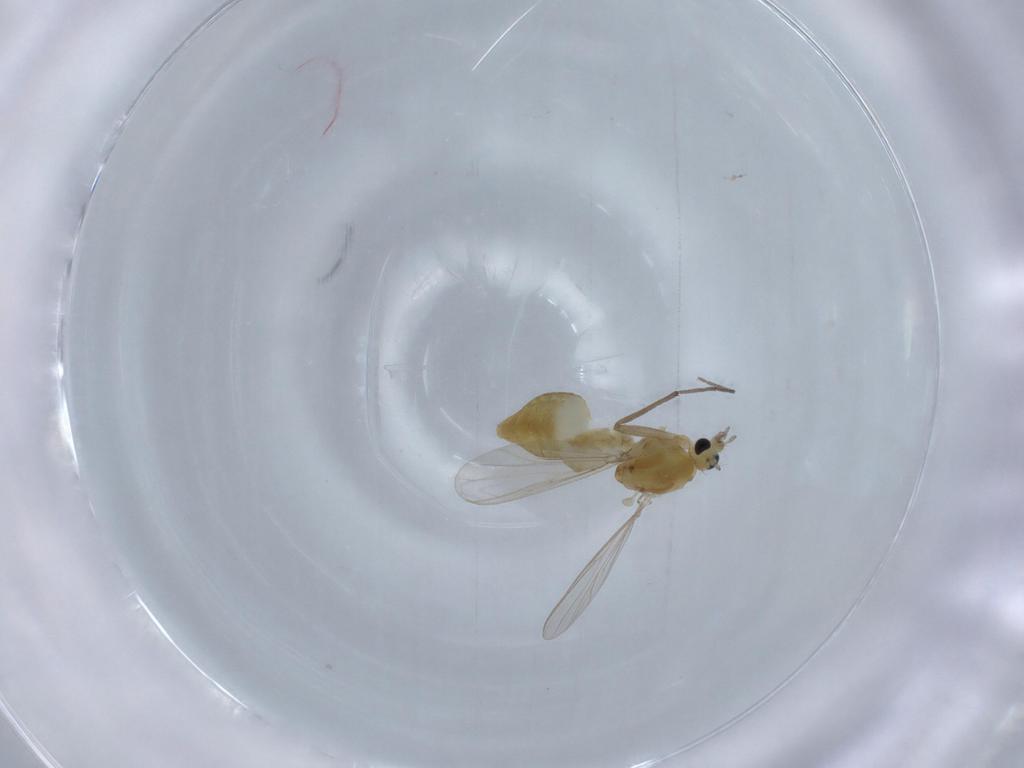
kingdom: Animalia
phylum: Arthropoda
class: Insecta
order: Diptera
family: Chironomidae
